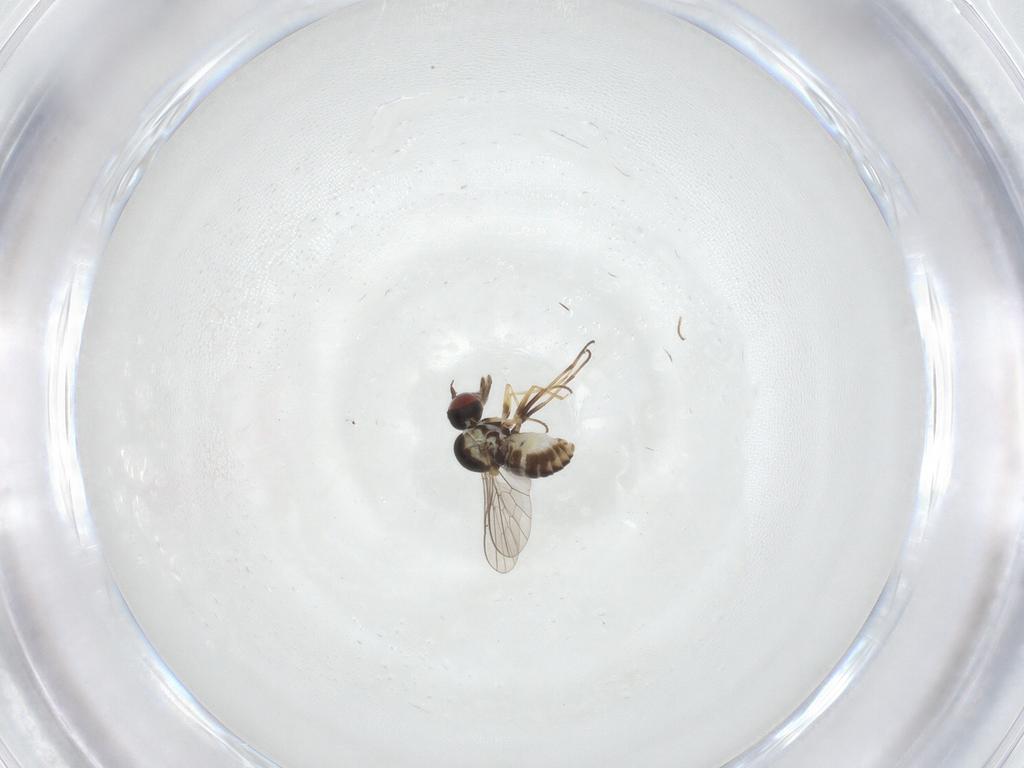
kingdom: Animalia
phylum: Arthropoda
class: Insecta
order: Diptera
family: Mythicomyiidae
